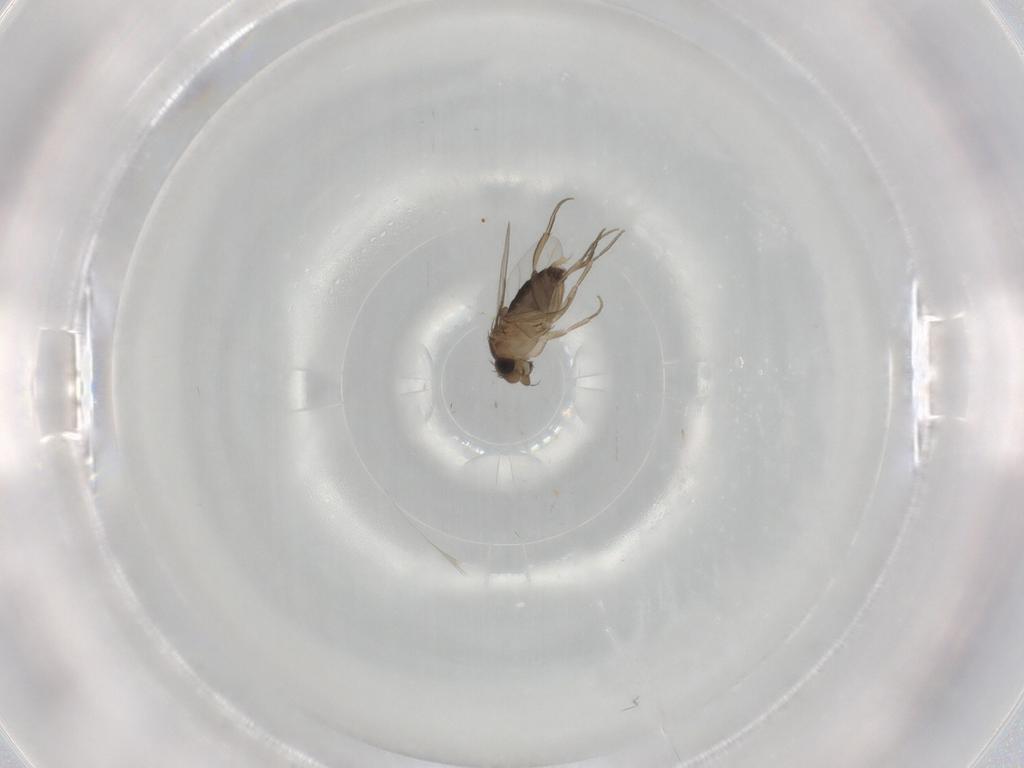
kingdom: Animalia
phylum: Arthropoda
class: Insecta
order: Diptera
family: Phoridae
